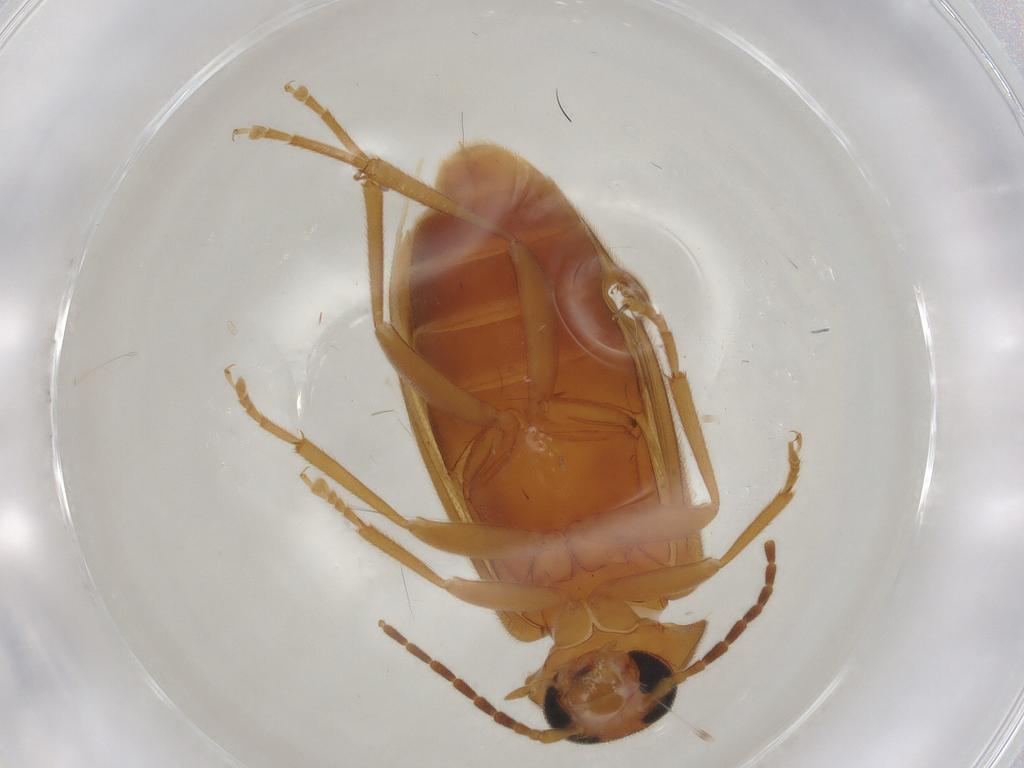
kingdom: Animalia
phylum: Arthropoda
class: Insecta
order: Coleoptera
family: Scraptiidae
